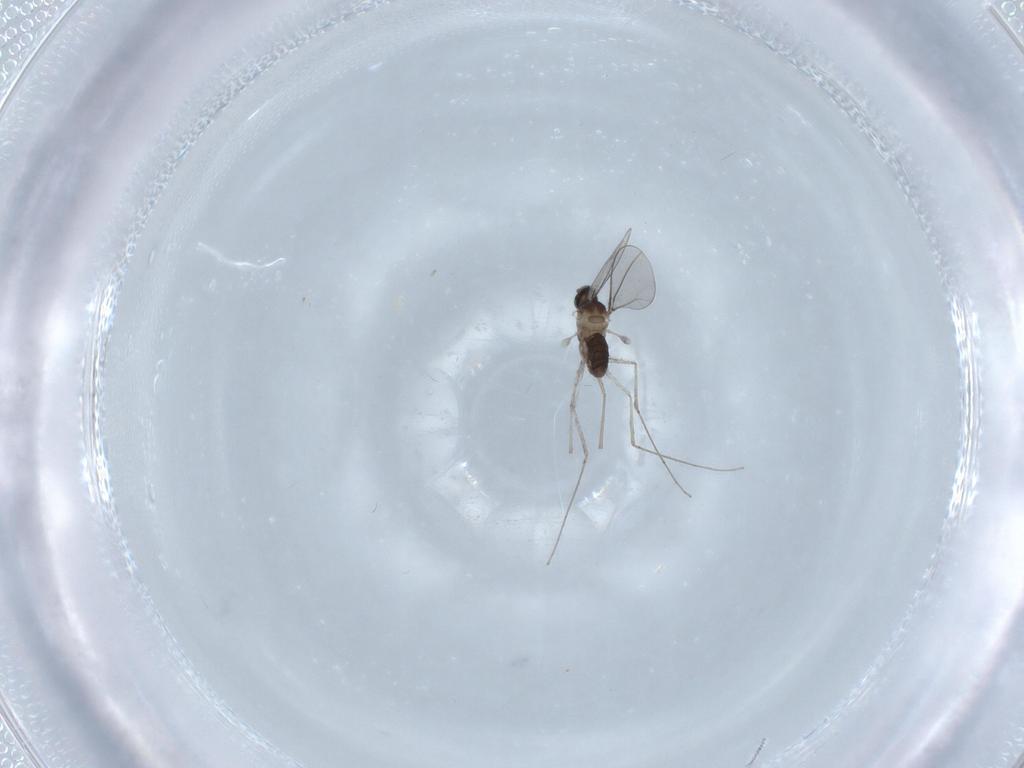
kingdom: Animalia
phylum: Arthropoda
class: Insecta
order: Diptera
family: Cecidomyiidae
